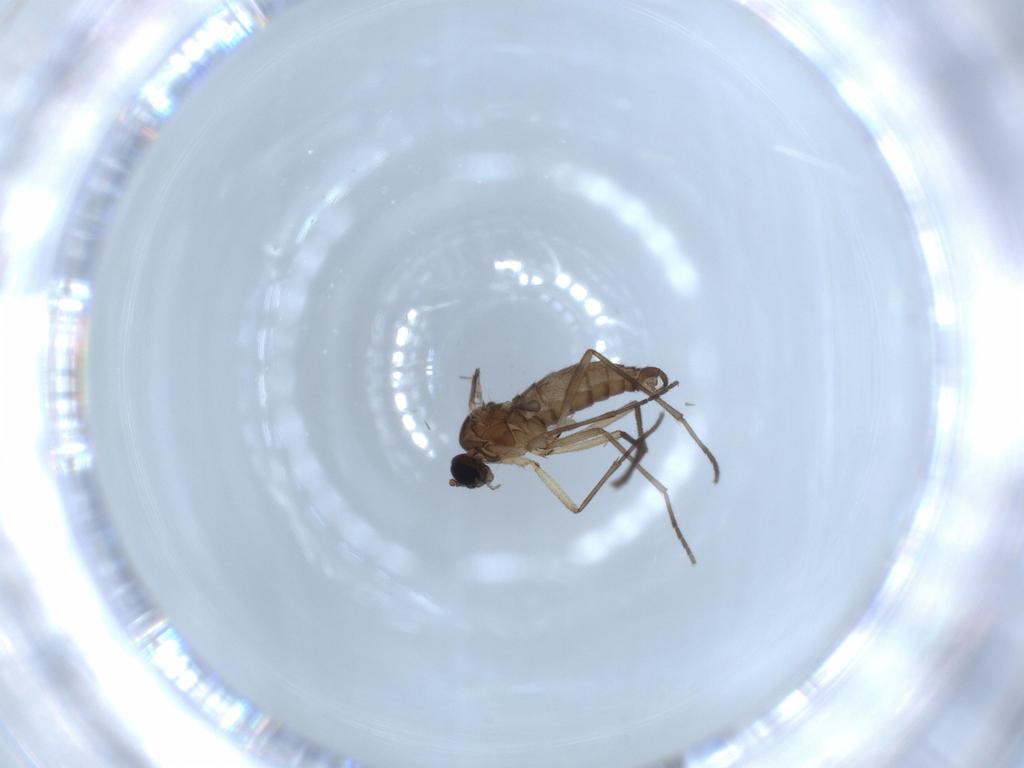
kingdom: Animalia
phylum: Arthropoda
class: Insecta
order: Diptera
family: Sciaridae
